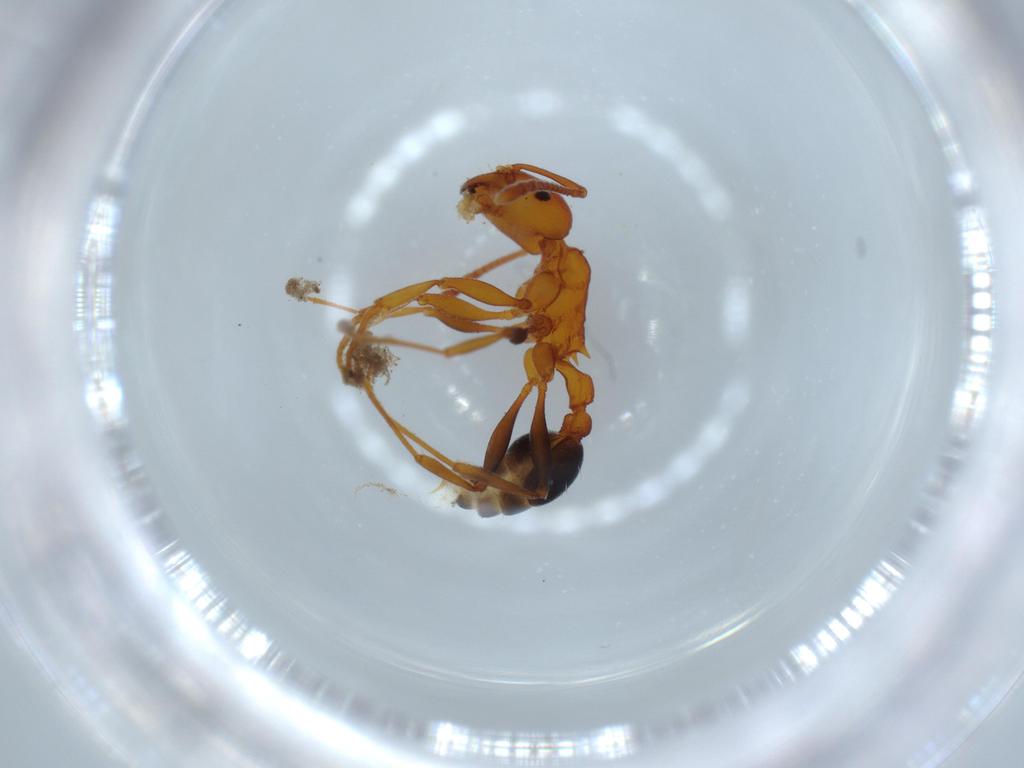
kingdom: Animalia
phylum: Arthropoda
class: Insecta
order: Hymenoptera
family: Formicidae
